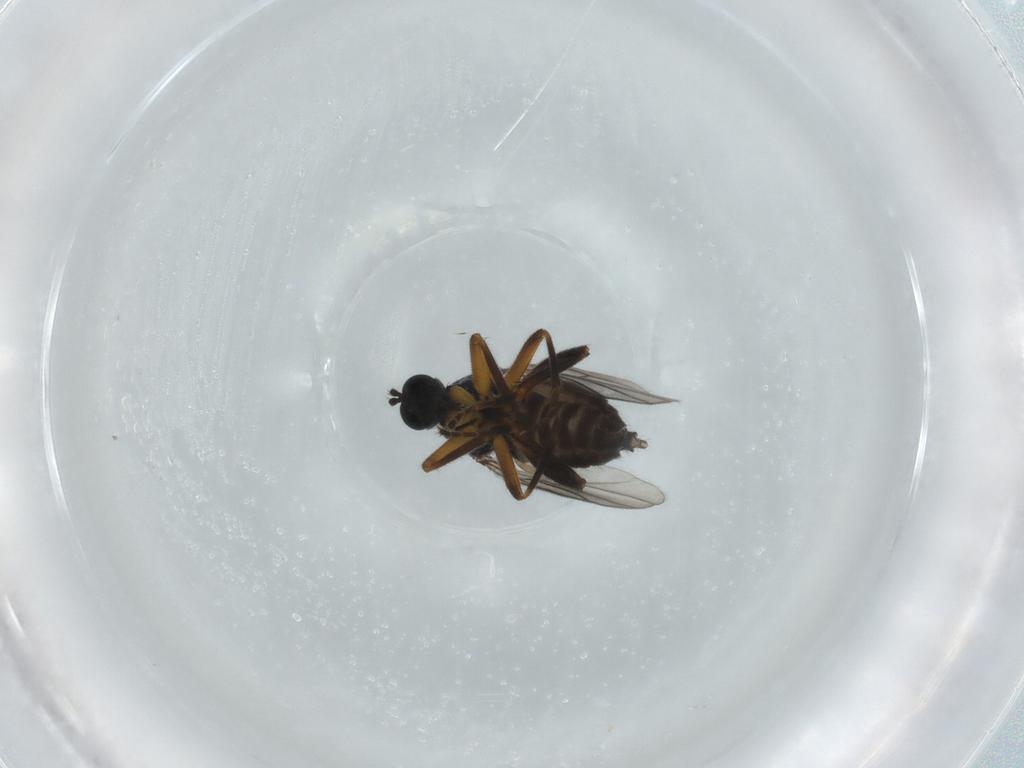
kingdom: Animalia
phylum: Arthropoda
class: Insecta
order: Diptera
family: Hybotidae
